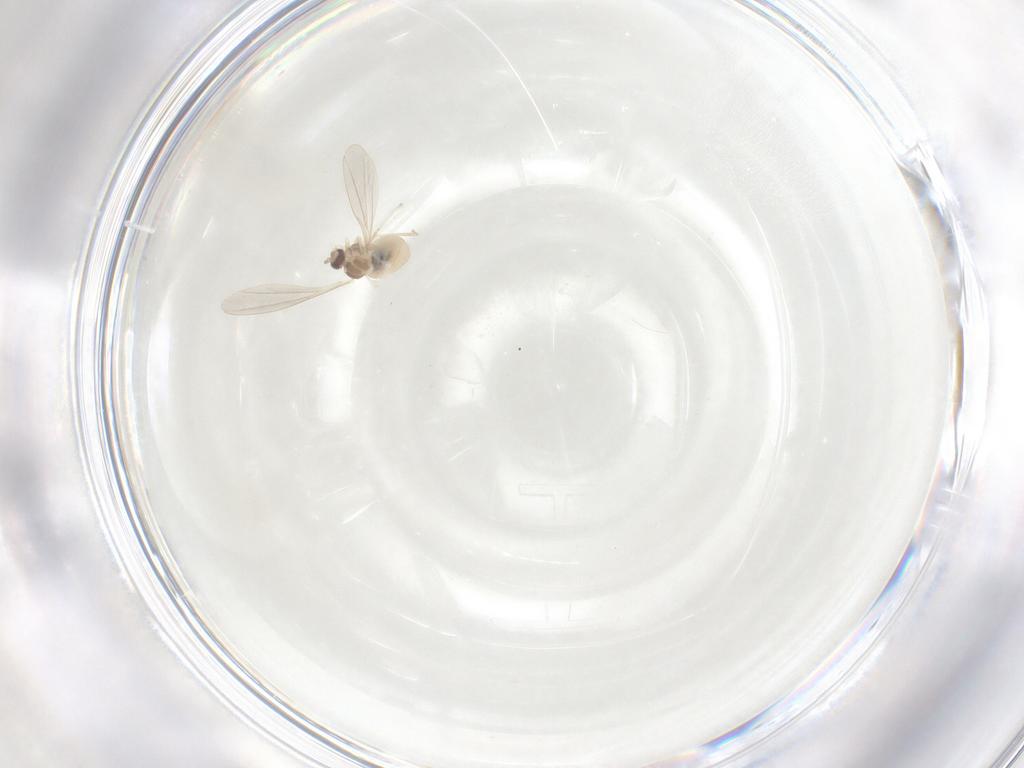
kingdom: Animalia
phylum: Arthropoda
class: Insecta
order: Diptera
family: Cecidomyiidae
